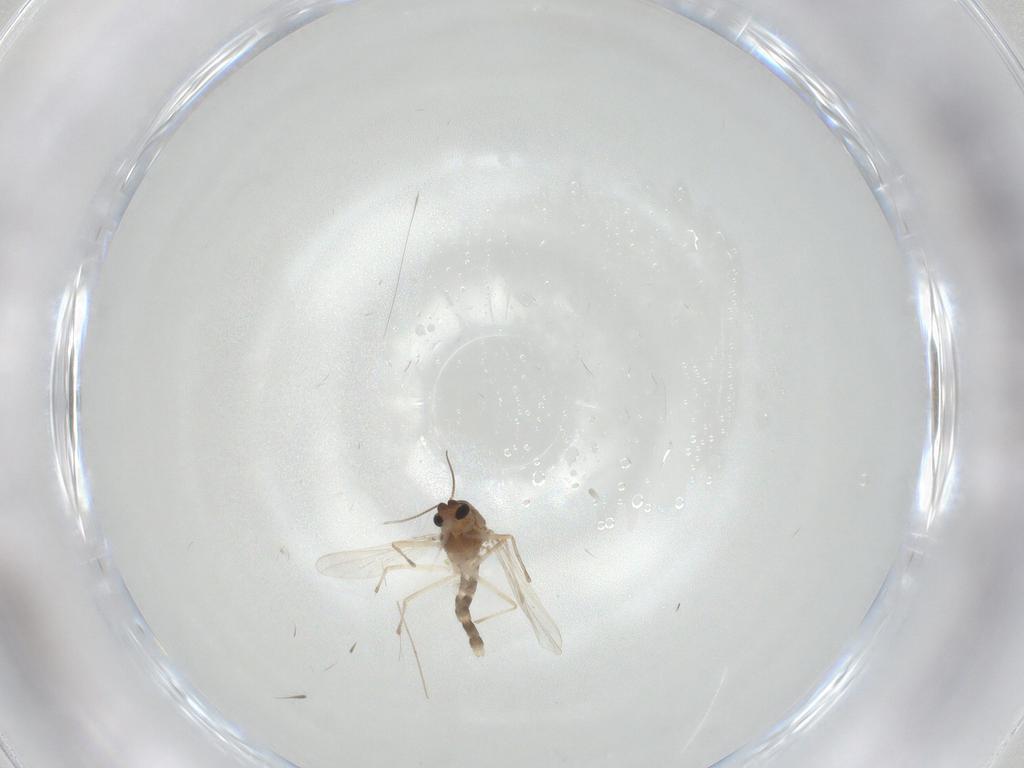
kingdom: Animalia
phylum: Arthropoda
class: Insecta
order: Diptera
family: Chironomidae
